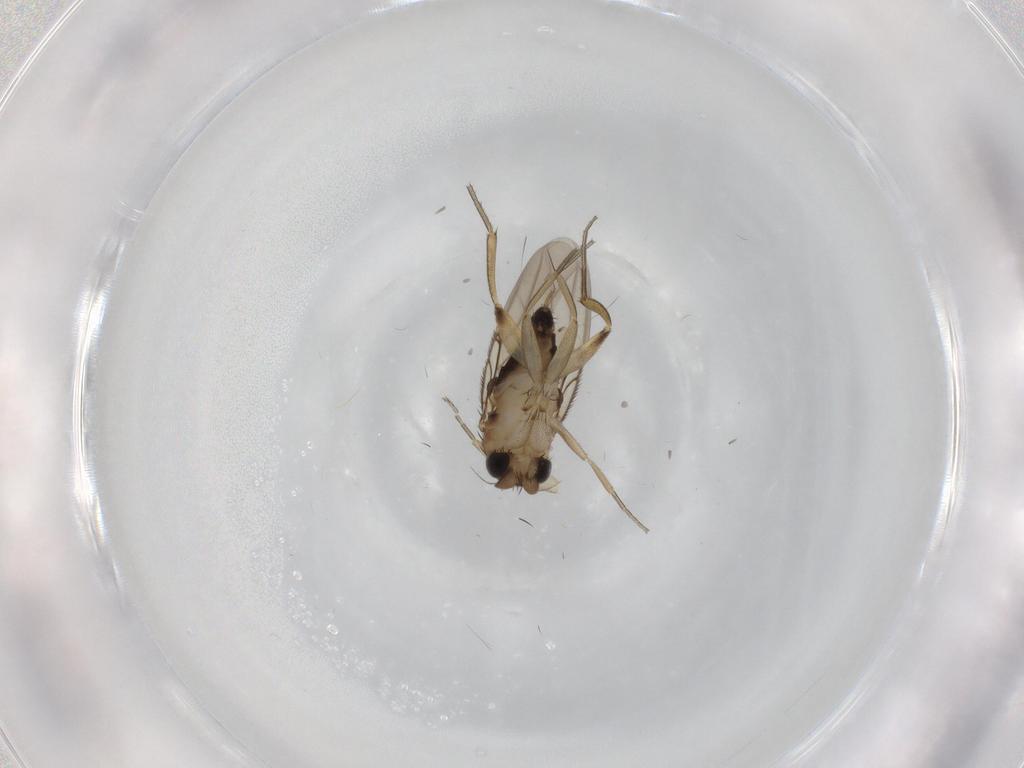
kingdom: Animalia
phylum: Arthropoda
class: Insecta
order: Diptera
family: Phoridae
